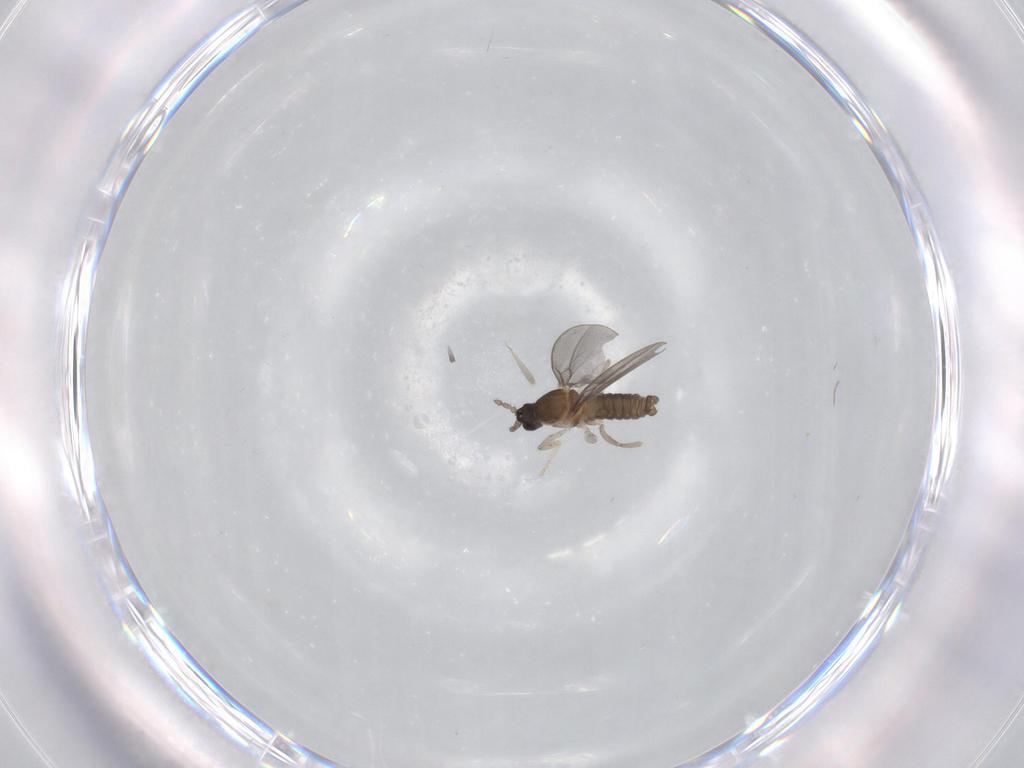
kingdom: Animalia
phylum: Arthropoda
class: Insecta
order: Diptera
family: Cecidomyiidae
